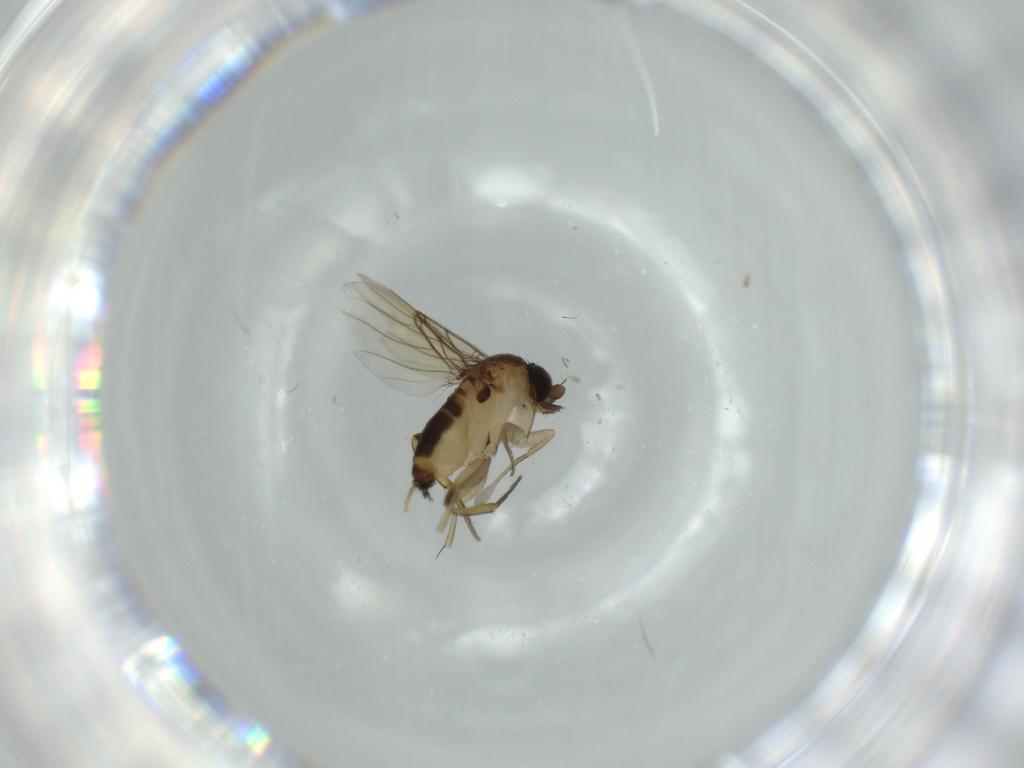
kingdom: Animalia
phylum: Arthropoda
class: Insecta
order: Diptera
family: Phoridae
